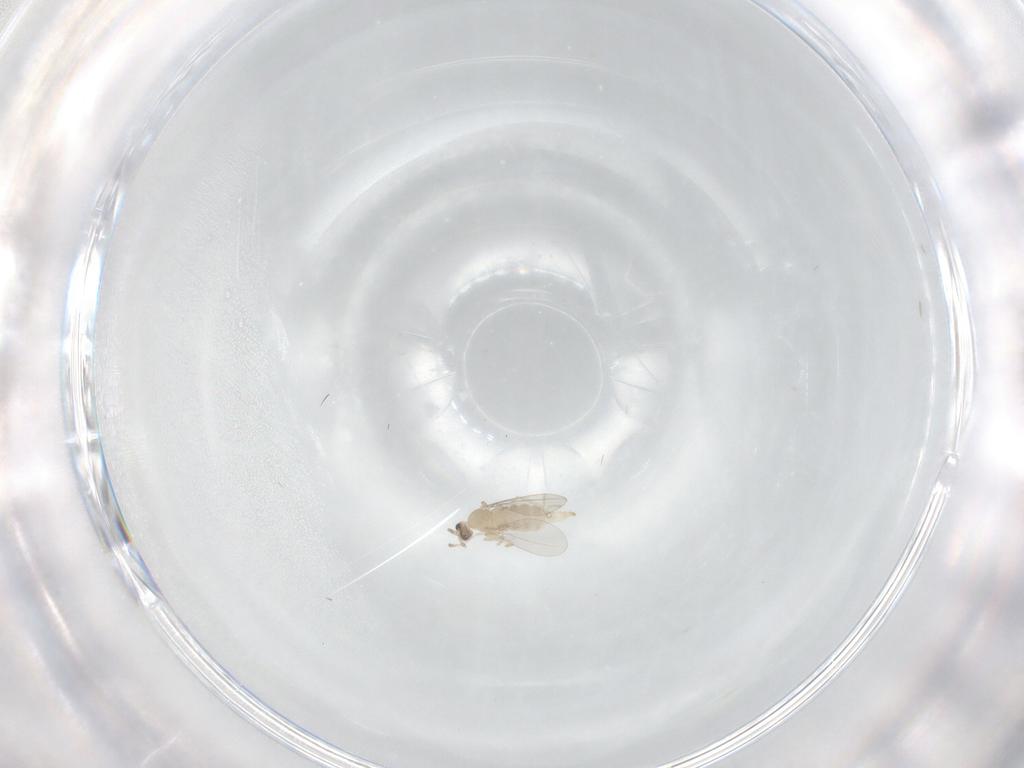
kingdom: Animalia
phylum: Arthropoda
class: Insecta
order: Diptera
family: Cecidomyiidae
